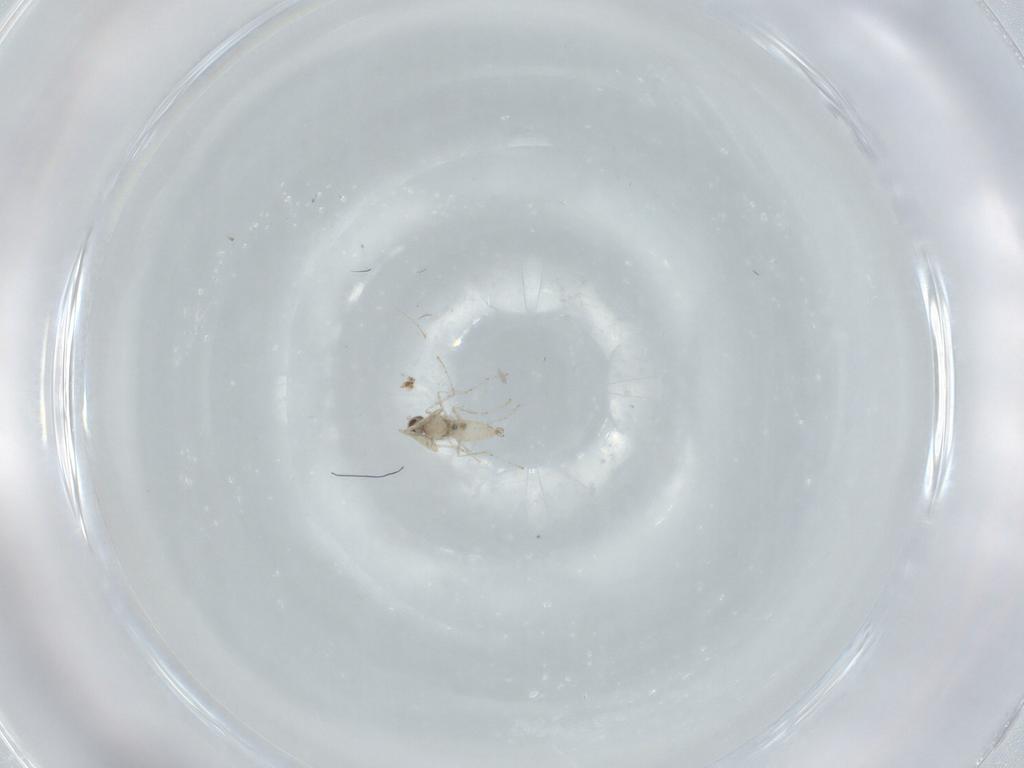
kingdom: Animalia
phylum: Arthropoda
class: Insecta
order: Diptera
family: Cecidomyiidae
